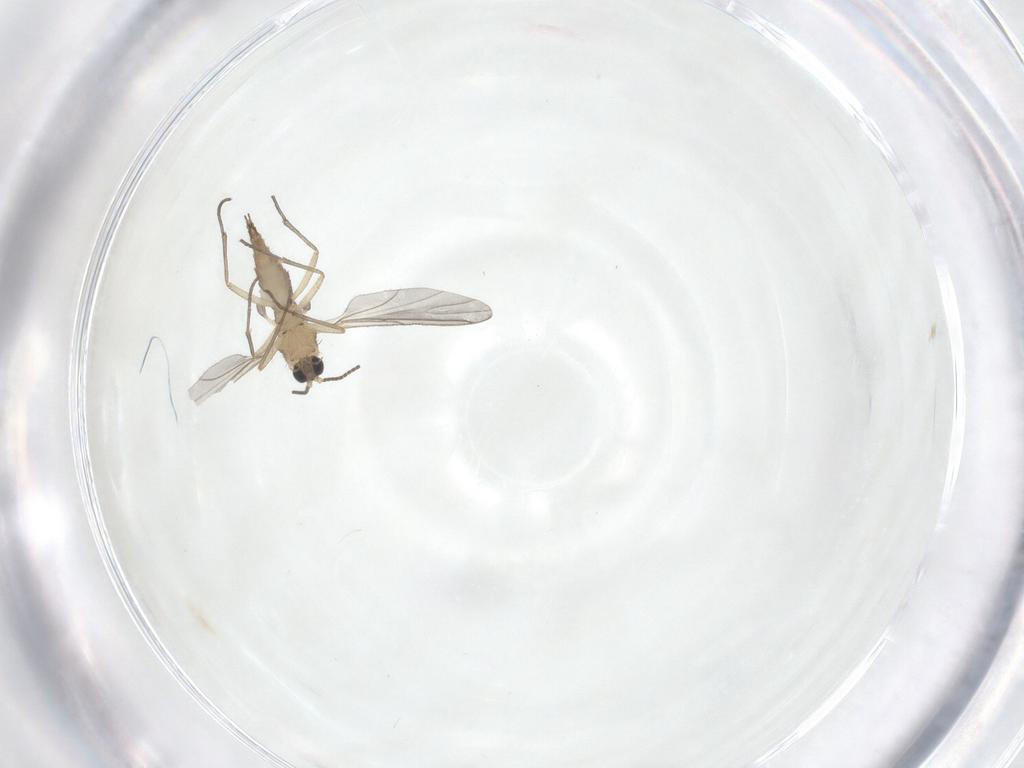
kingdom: Animalia
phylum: Arthropoda
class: Insecta
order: Diptera
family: Sciaridae
